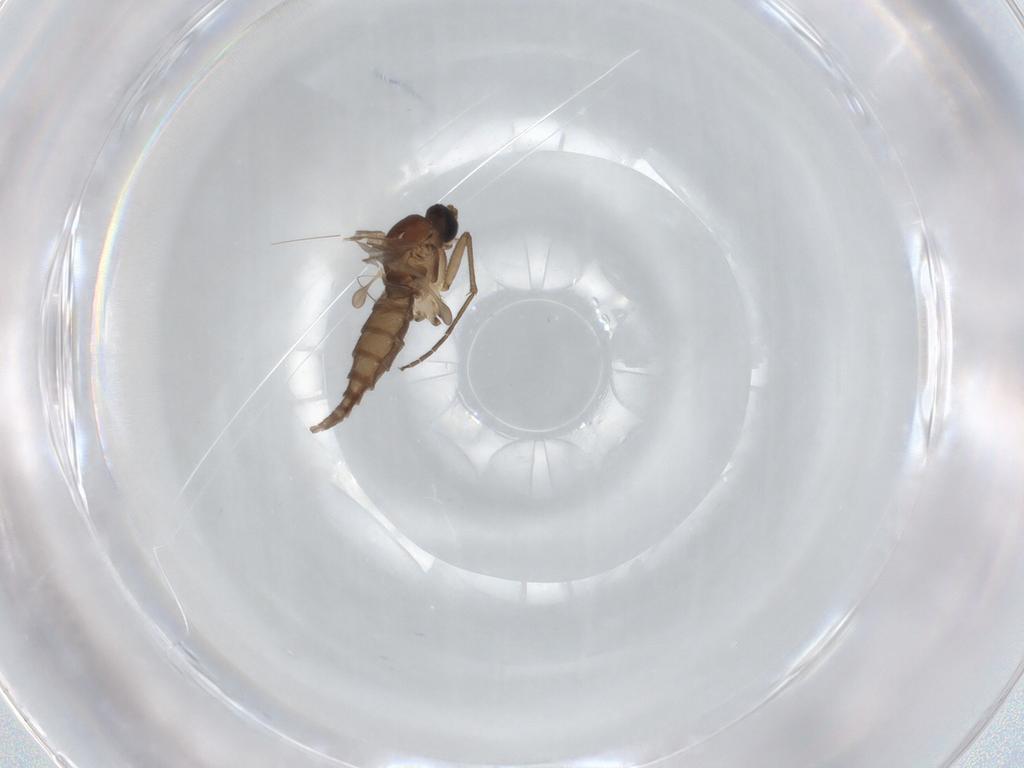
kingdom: Animalia
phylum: Arthropoda
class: Insecta
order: Diptera
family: Sciaridae
